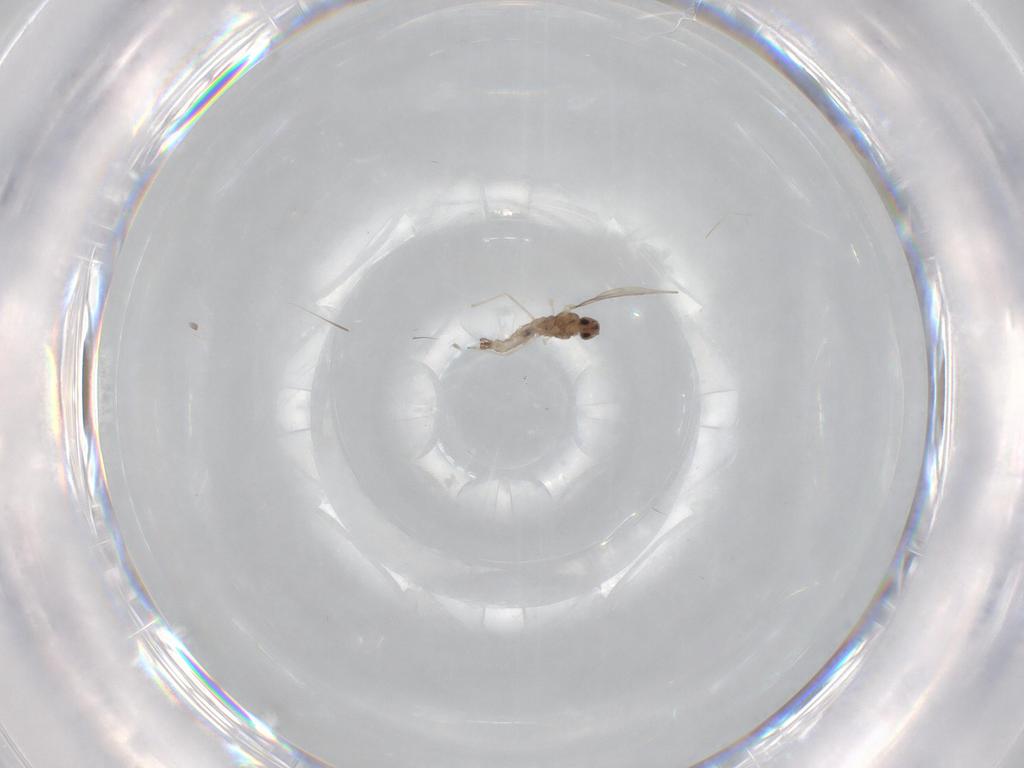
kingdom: Animalia
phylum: Arthropoda
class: Insecta
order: Diptera
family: Cecidomyiidae
